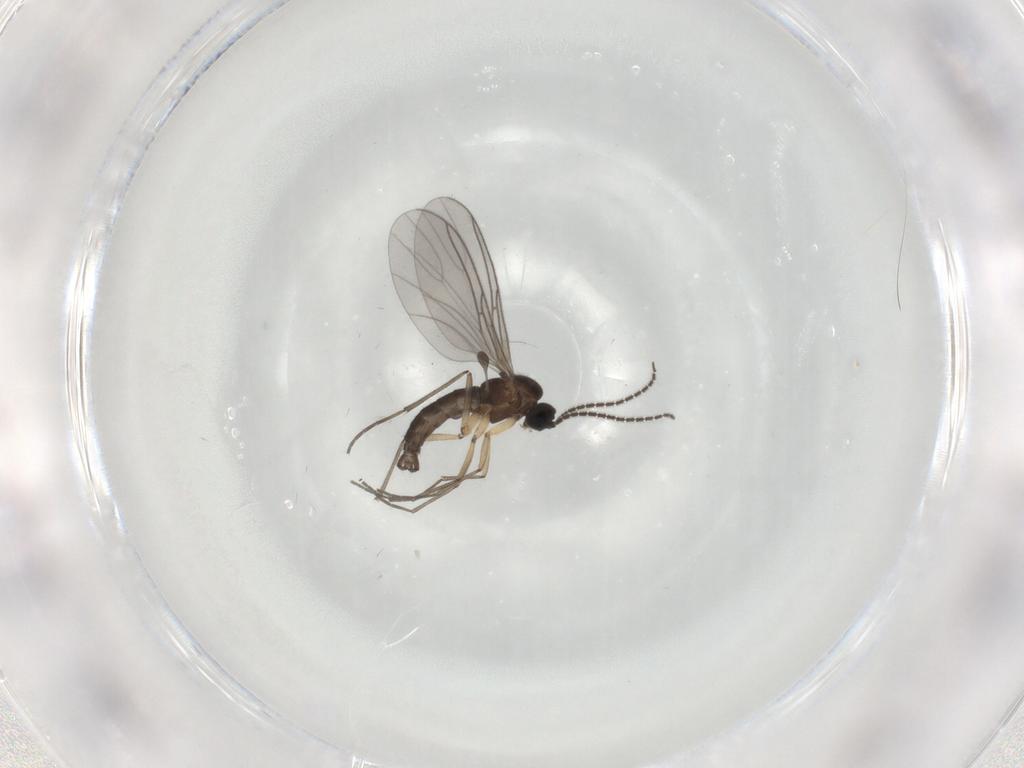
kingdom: Animalia
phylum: Arthropoda
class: Insecta
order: Diptera
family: Sciaridae
